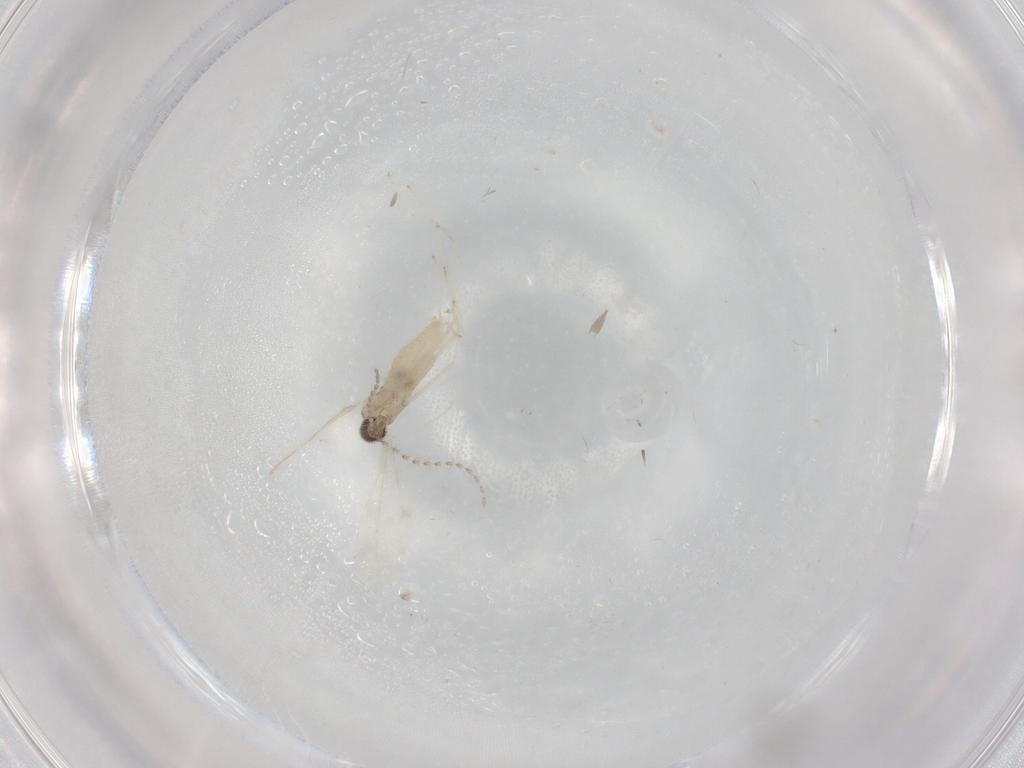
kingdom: Animalia
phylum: Arthropoda
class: Insecta
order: Diptera
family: Cecidomyiidae
